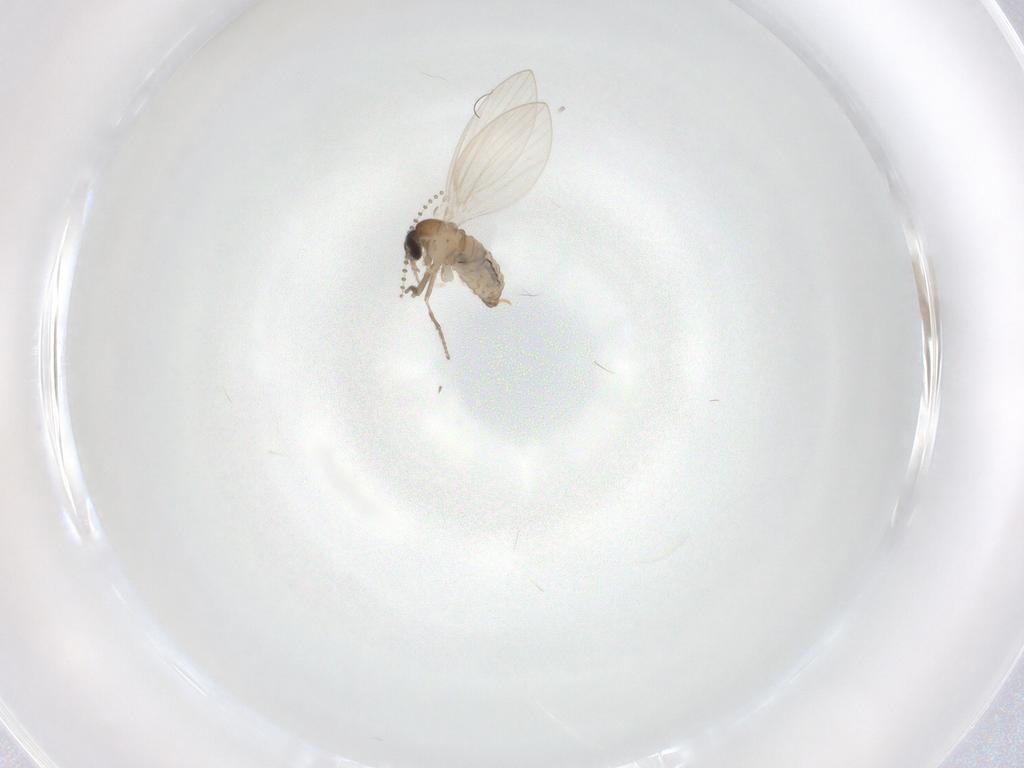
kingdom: Animalia
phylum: Arthropoda
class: Insecta
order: Diptera
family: Psychodidae
